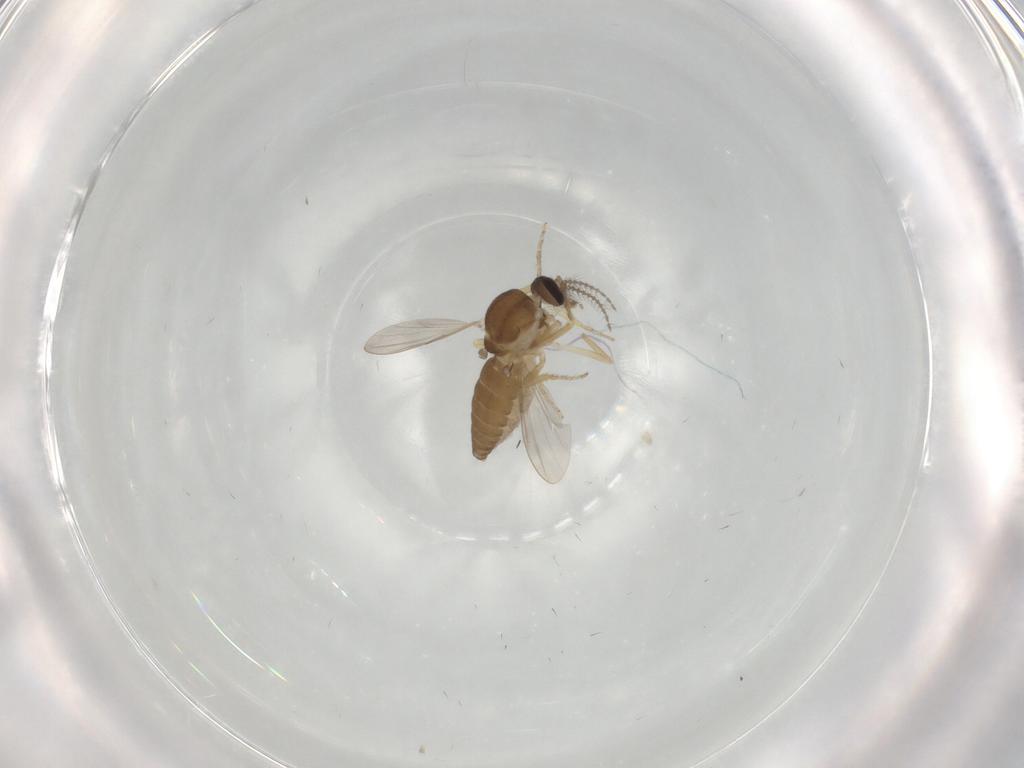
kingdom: Animalia
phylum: Arthropoda
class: Insecta
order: Diptera
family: Ceratopogonidae
